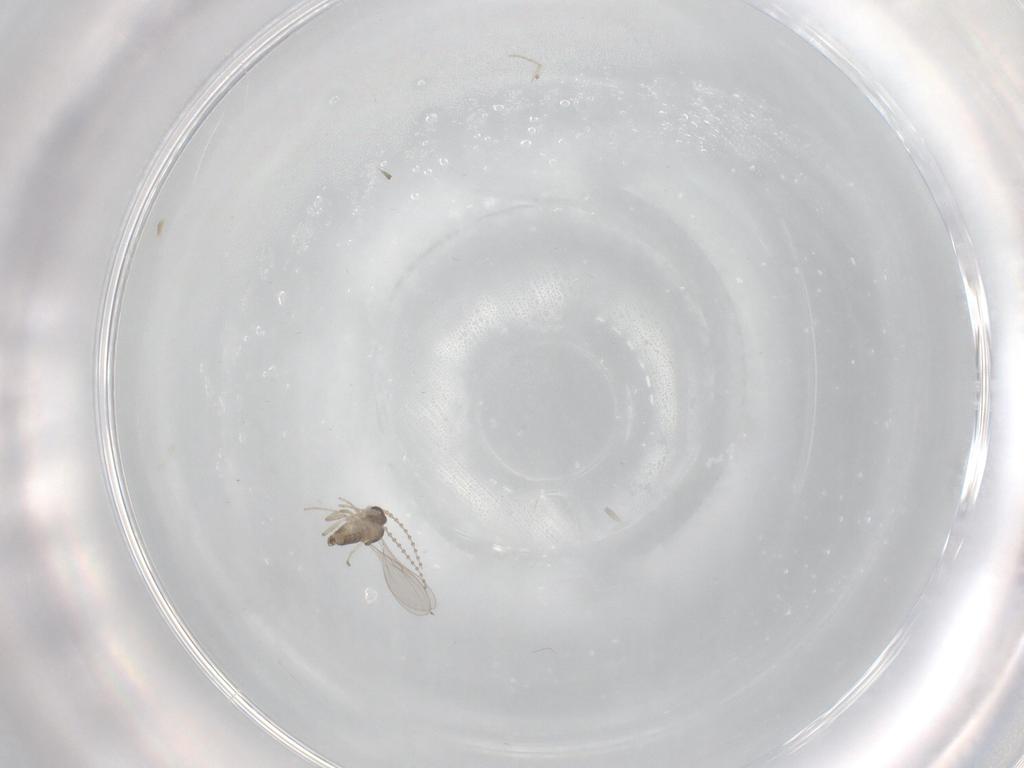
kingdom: Animalia
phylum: Arthropoda
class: Insecta
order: Diptera
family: Cecidomyiidae
